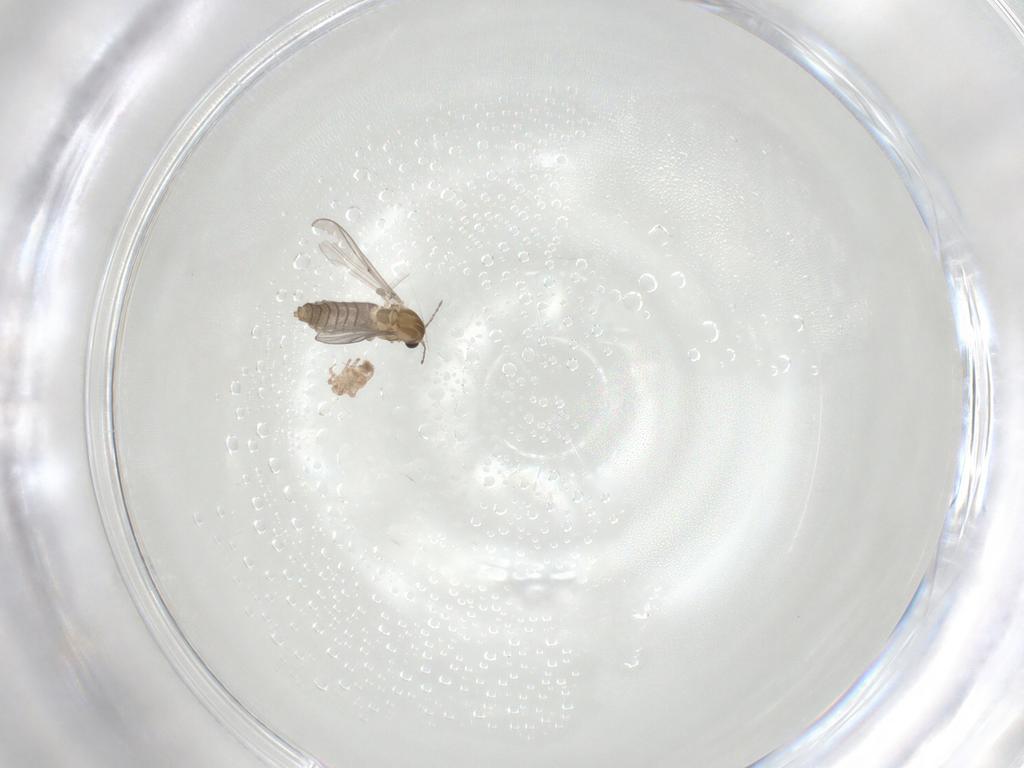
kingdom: Animalia
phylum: Arthropoda
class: Insecta
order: Diptera
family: Chironomidae
